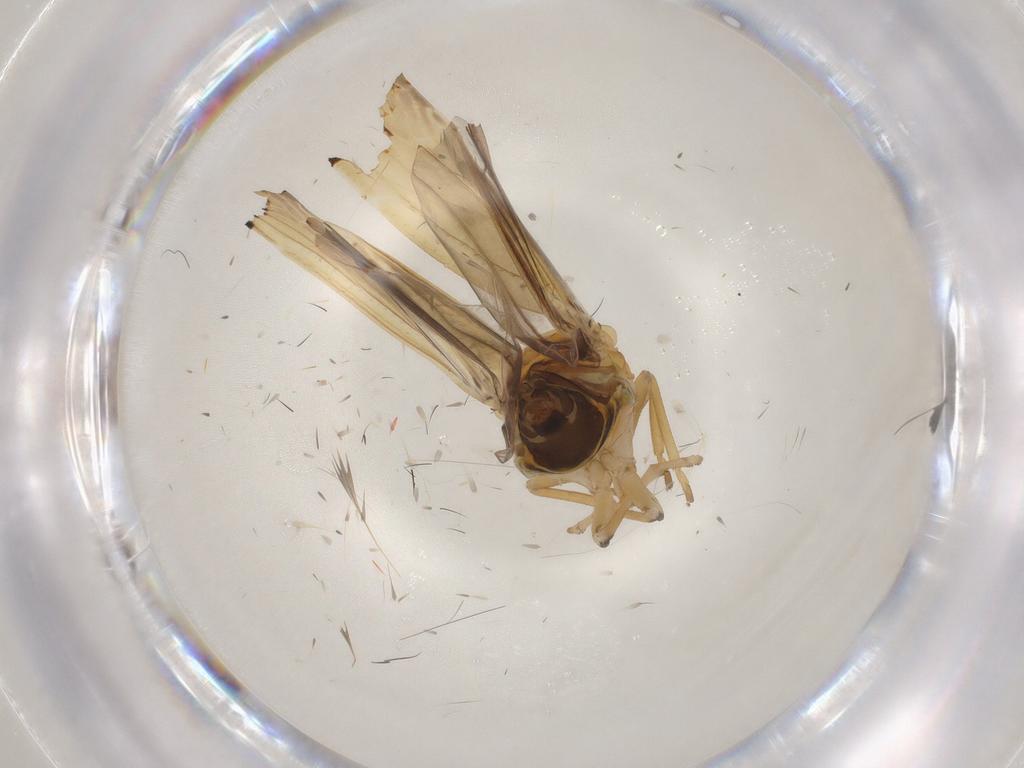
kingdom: Animalia
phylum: Arthropoda
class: Insecta
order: Hemiptera
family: Derbidae
